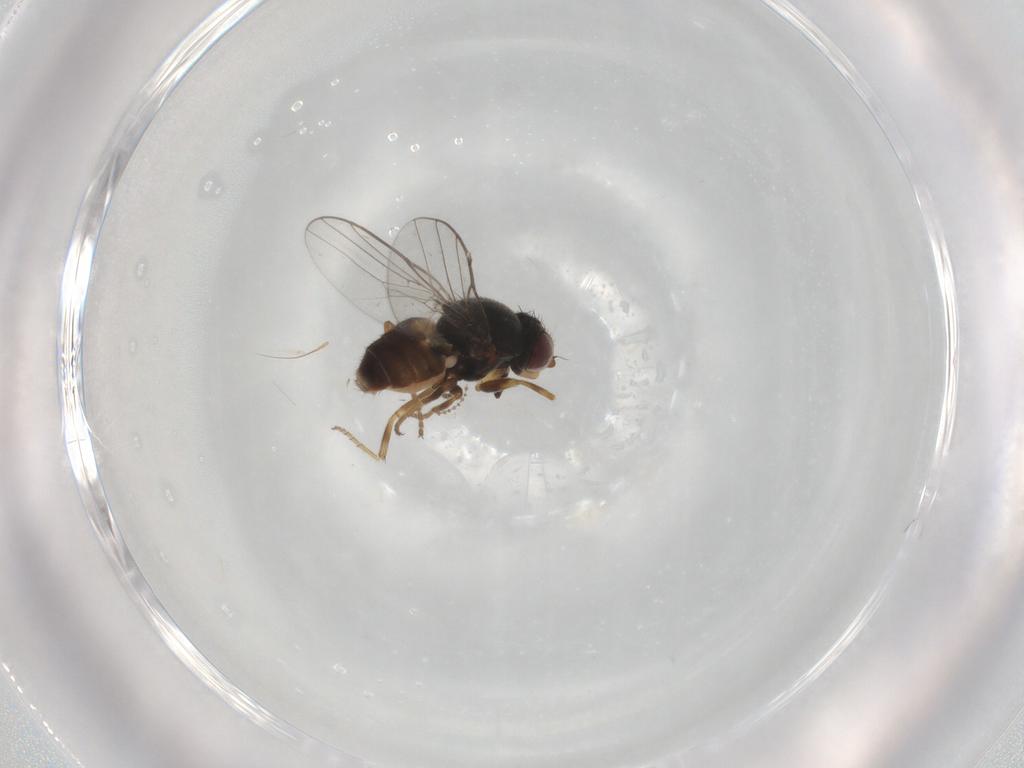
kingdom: Animalia
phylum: Arthropoda
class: Insecta
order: Diptera
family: Chloropidae
